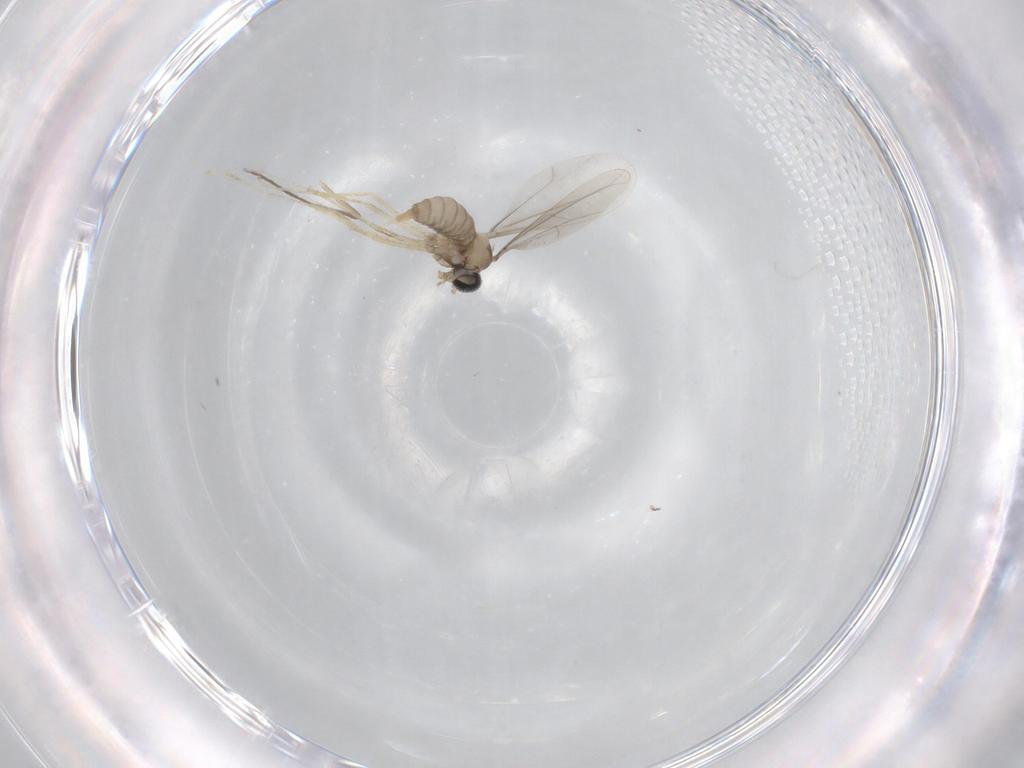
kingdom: Animalia
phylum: Arthropoda
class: Insecta
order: Diptera
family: Cecidomyiidae
